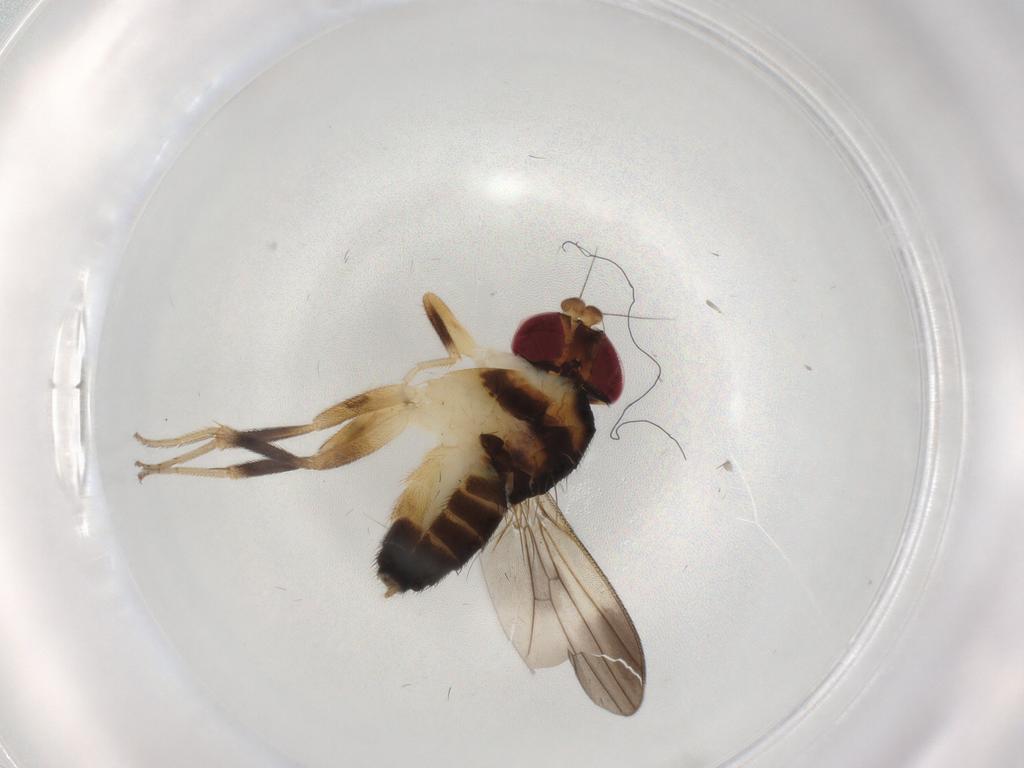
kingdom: Animalia
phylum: Arthropoda
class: Insecta
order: Diptera
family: Clusiidae
